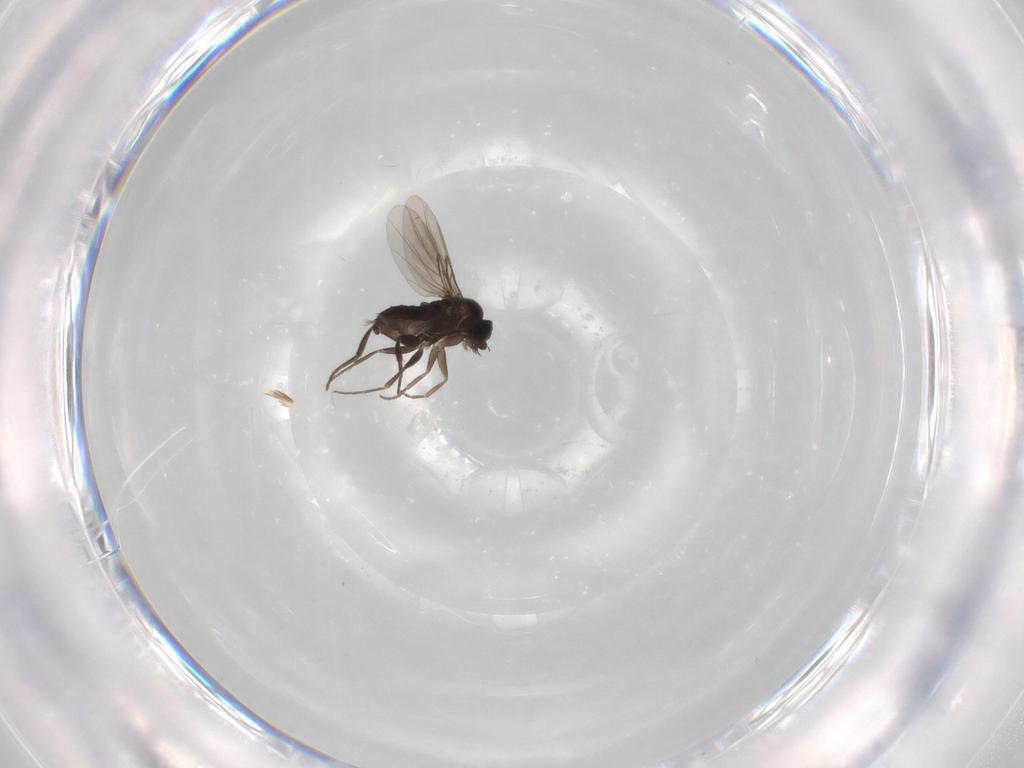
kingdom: Animalia
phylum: Arthropoda
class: Insecta
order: Diptera
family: Phoridae
